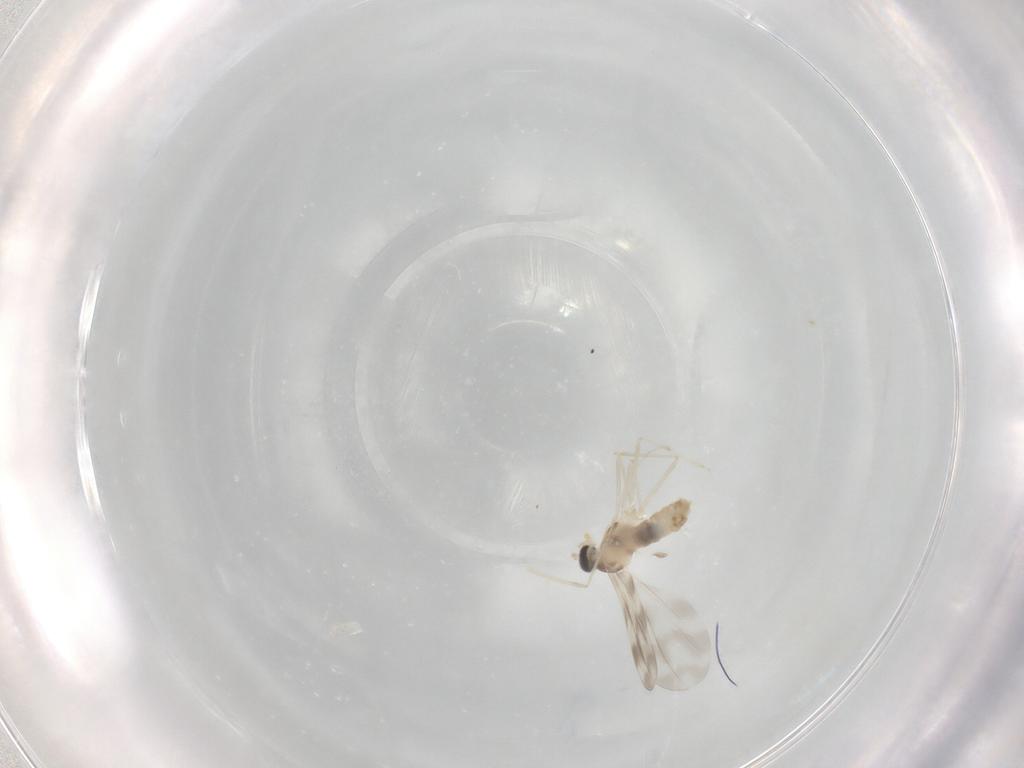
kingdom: Animalia
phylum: Arthropoda
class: Insecta
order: Diptera
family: Cecidomyiidae
